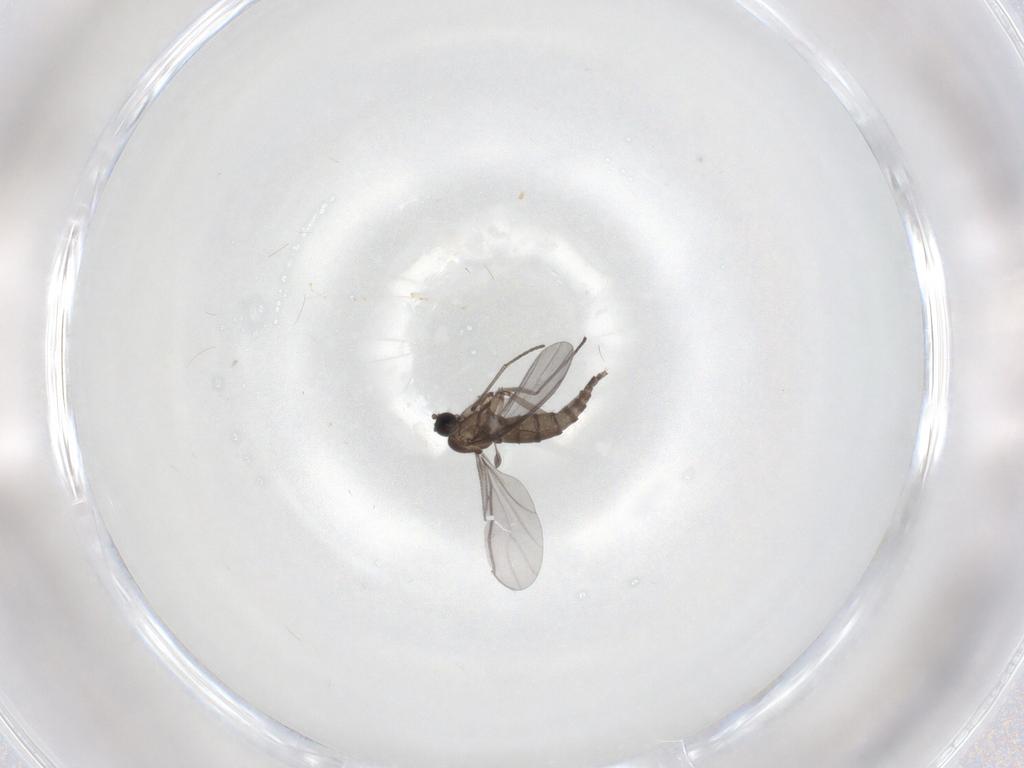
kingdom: Animalia
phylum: Arthropoda
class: Insecta
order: Diptera
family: Cecidomyiidae
